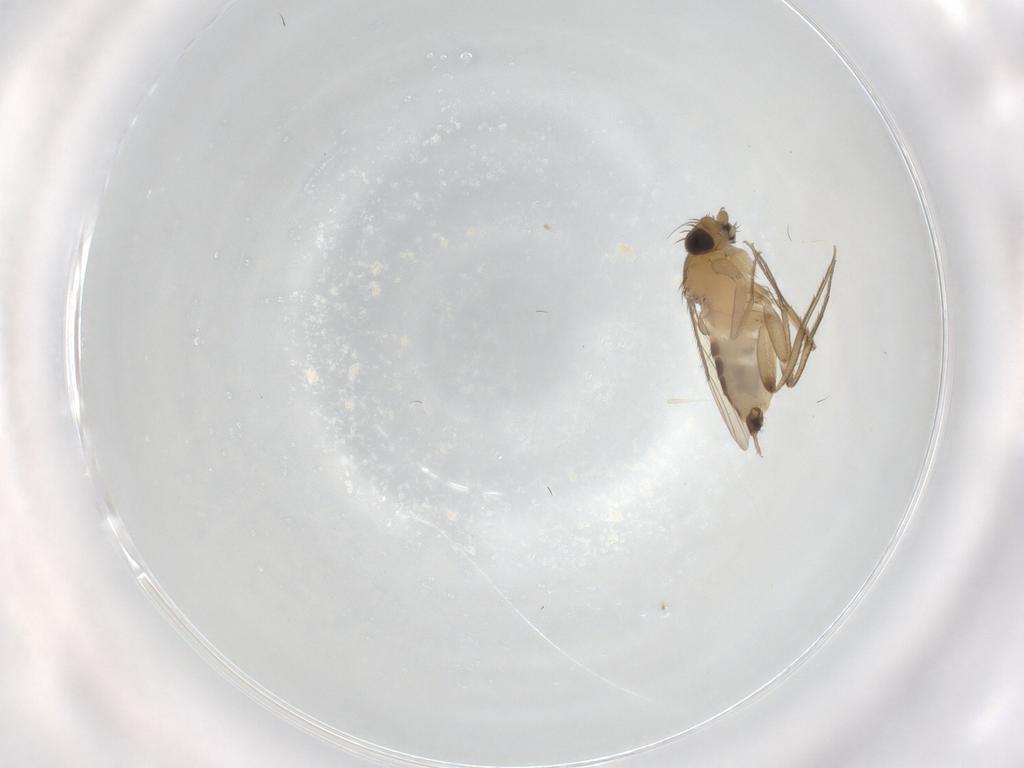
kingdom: Animalia
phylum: Arthropoda
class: Insecta
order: Diptera
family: Phoridae
